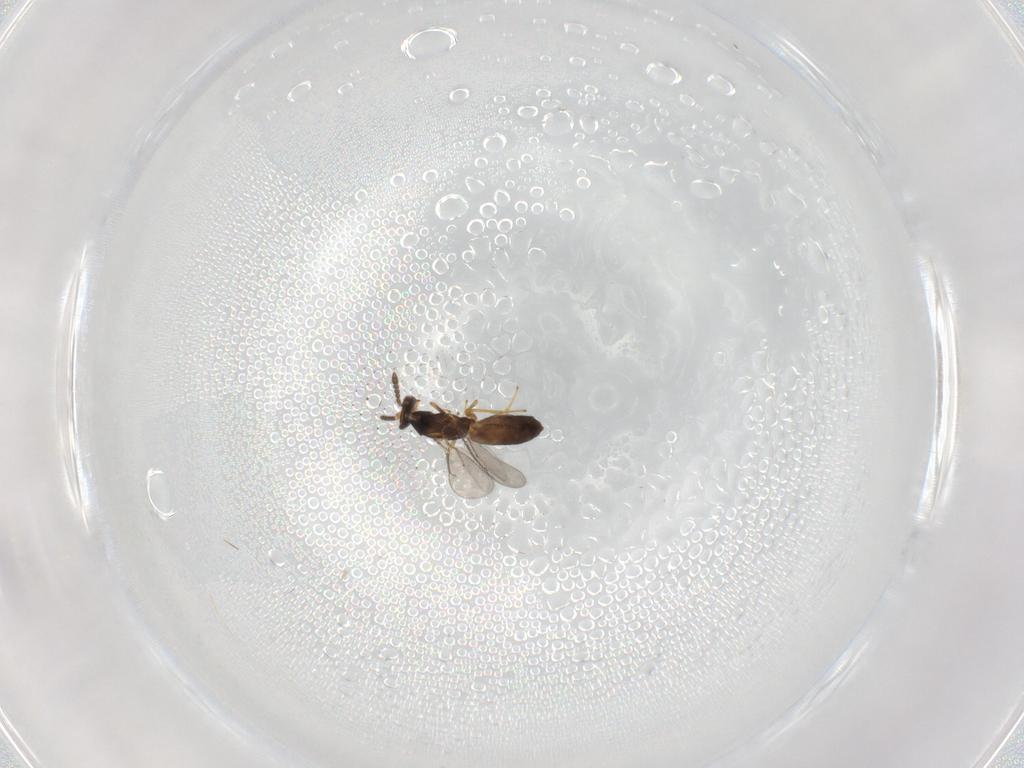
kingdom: Animalia
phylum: Arthropoda
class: Insecta
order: Hymenoptera
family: Eulophidae
